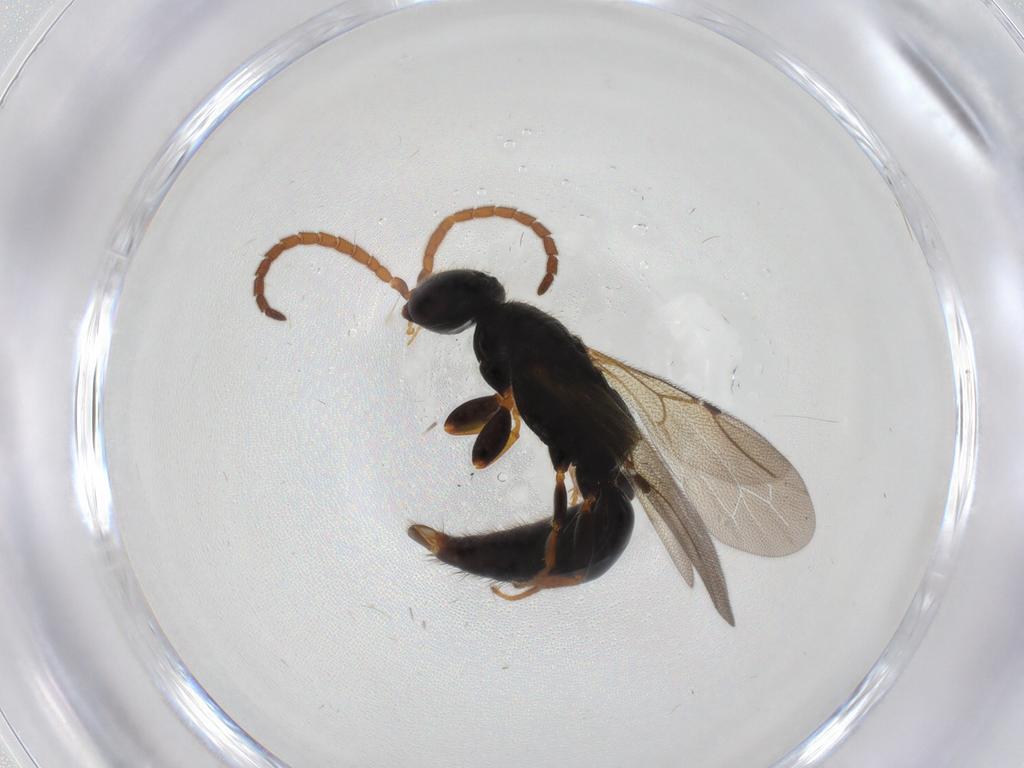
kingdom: Animalia
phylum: Arthropoda
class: Insecta
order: Hymenoptera
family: Bethylidae
